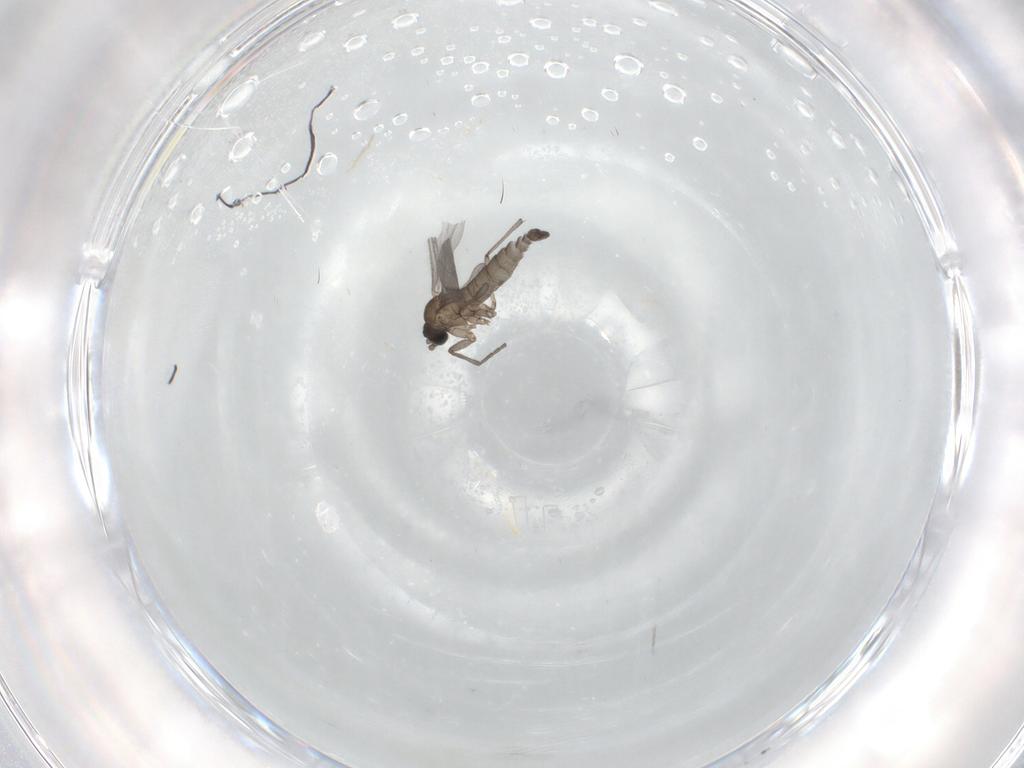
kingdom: Animalia
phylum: Arthropoda
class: Insecta
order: Diptera
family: Sciaridae
